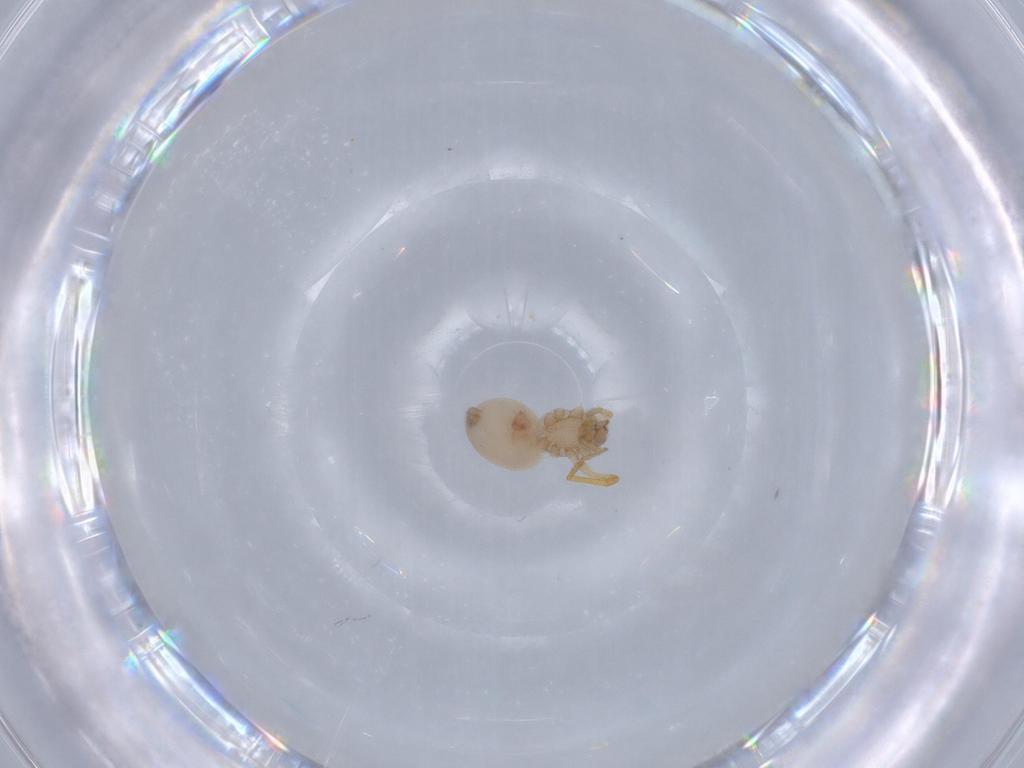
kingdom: Animalia
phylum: Arthropoda
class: Arachnida
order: Araneae
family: Oonopidae
